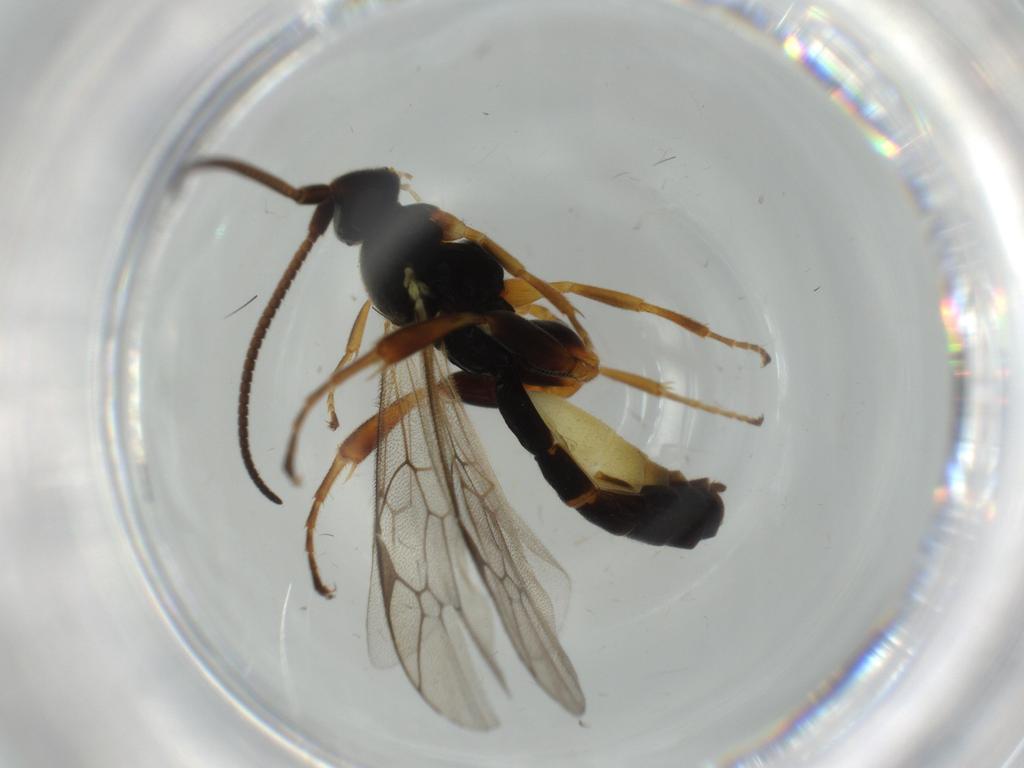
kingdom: Animalia
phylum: Arthropoda
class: Insecta
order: Hymenoptera
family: Ichneumonidae
